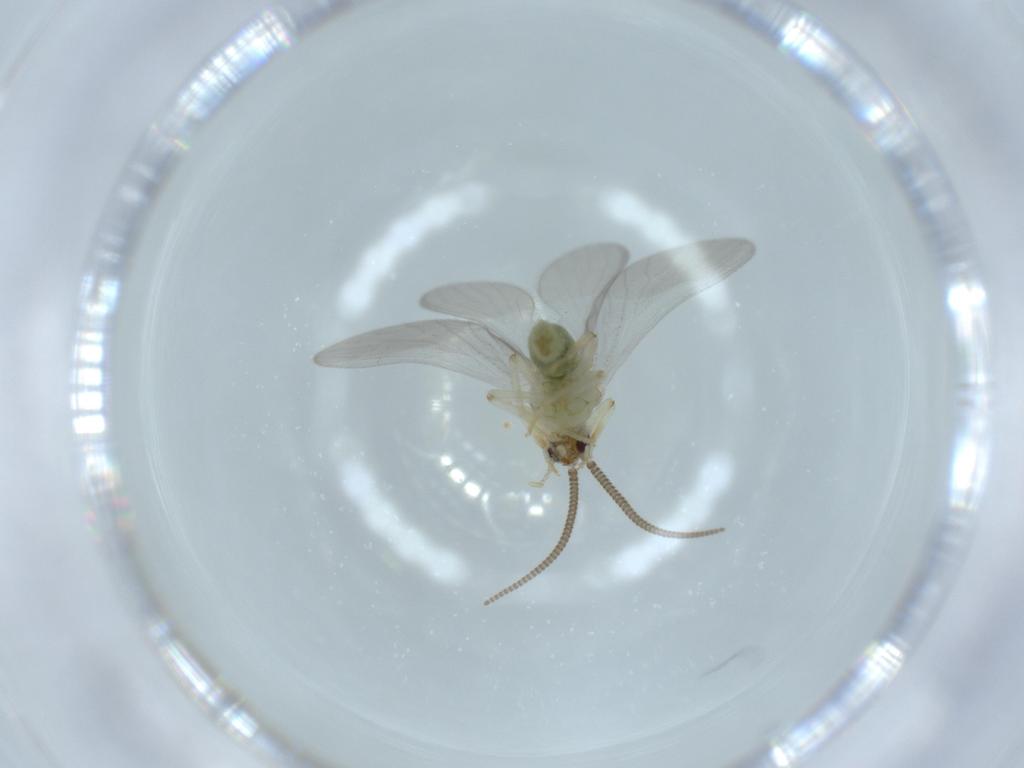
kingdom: Animalia
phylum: Arthropoda
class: Insecta
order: Neuroptera
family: Coniopterygidae
